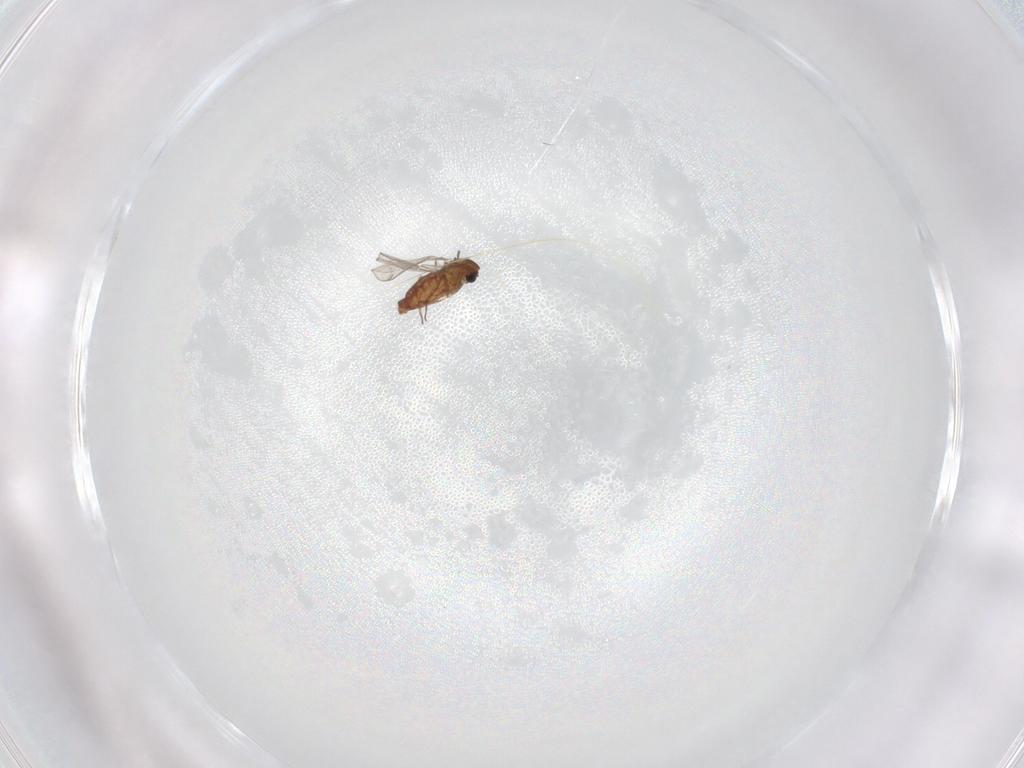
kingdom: Animalia
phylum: Arthropoda
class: Insecta
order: Diptera
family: Chironomidae
